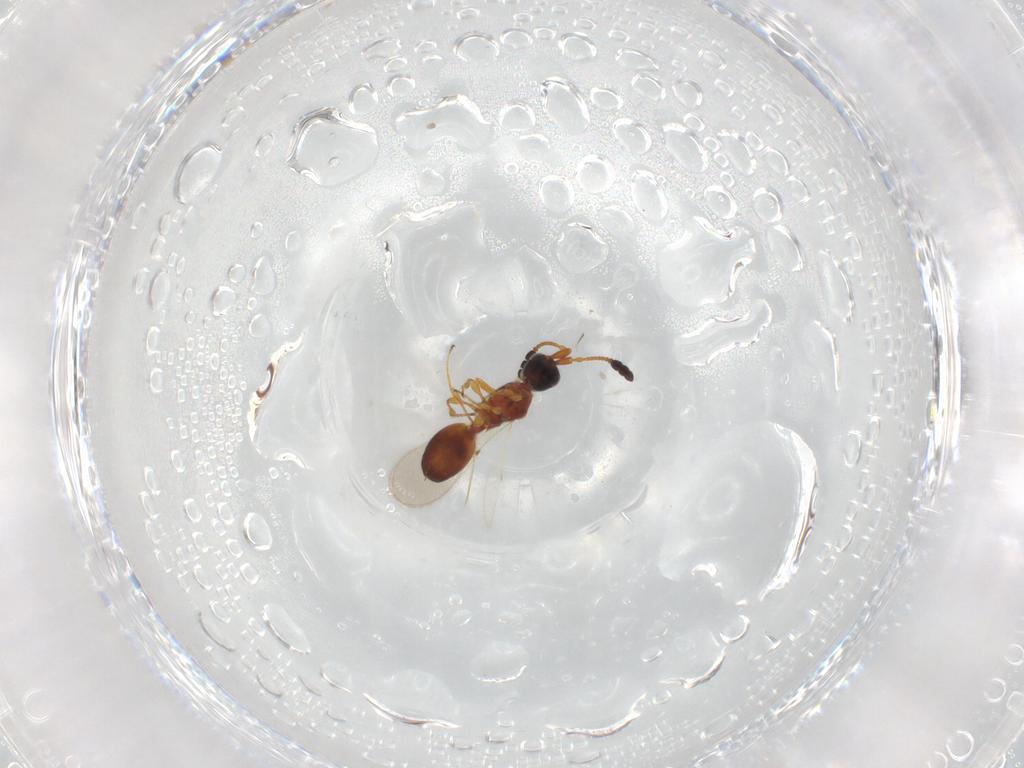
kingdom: Animalia
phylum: Arthropoda
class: Insecta
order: Hymenoptera
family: Diapriidae
